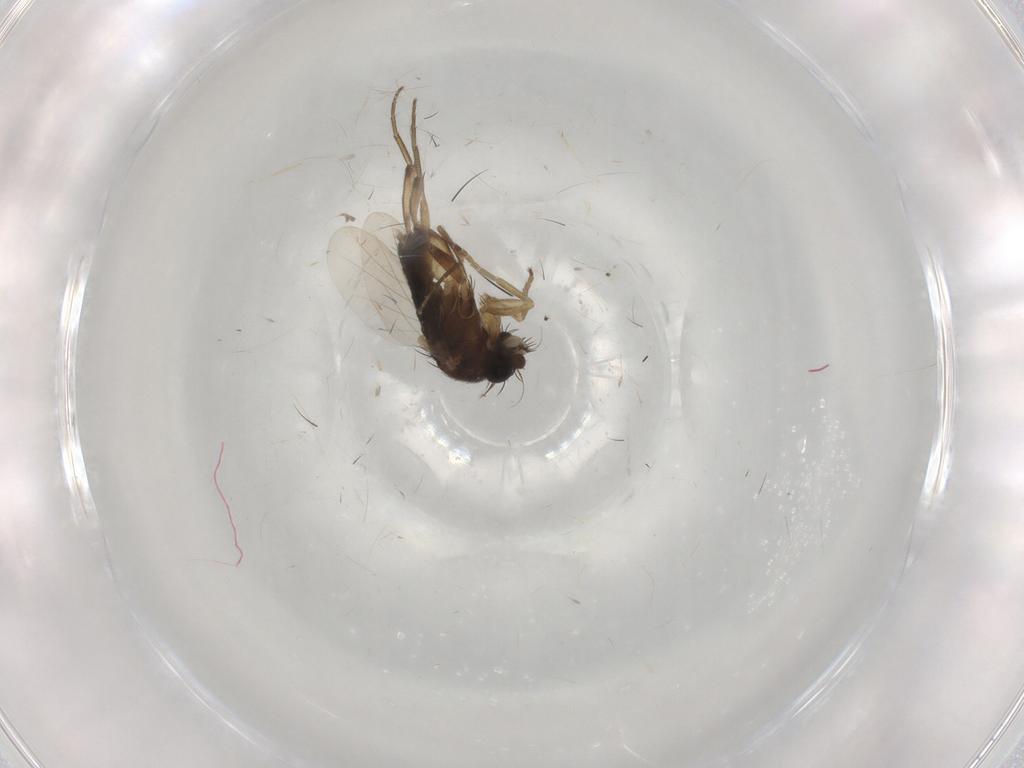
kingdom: Animalia
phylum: Arthropoda
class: Insecta
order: Diptera
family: Phoridae
